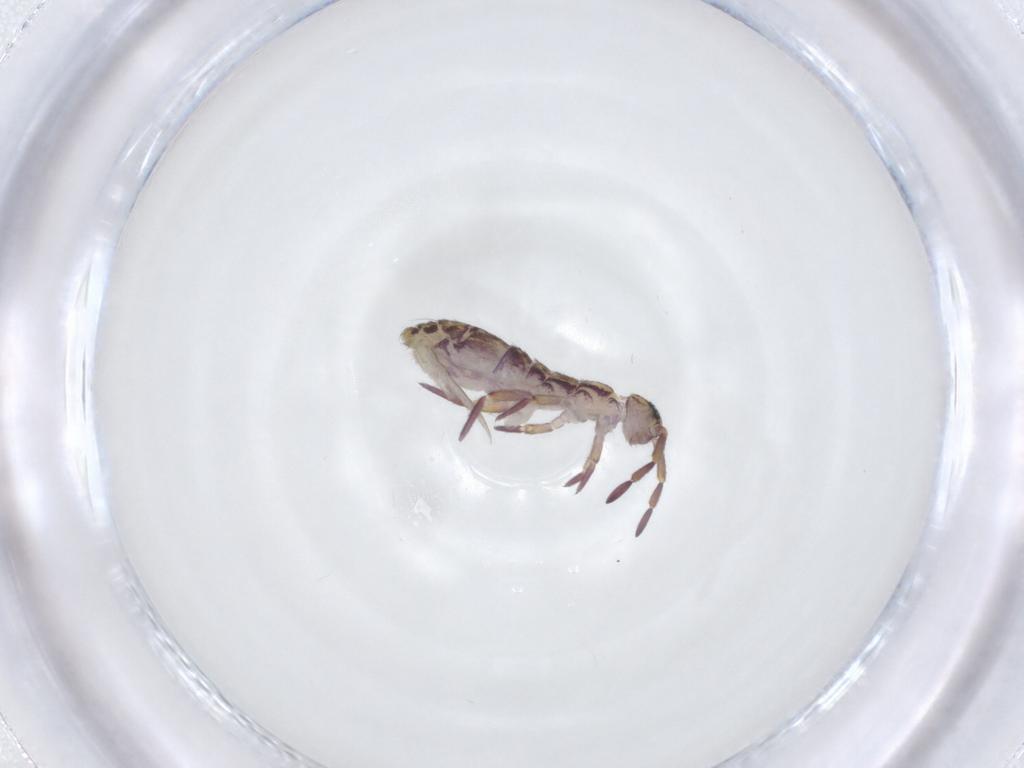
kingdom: Animalia
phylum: Arthropoda
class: Collembola
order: Entomobryomorpha
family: Isotomidae
